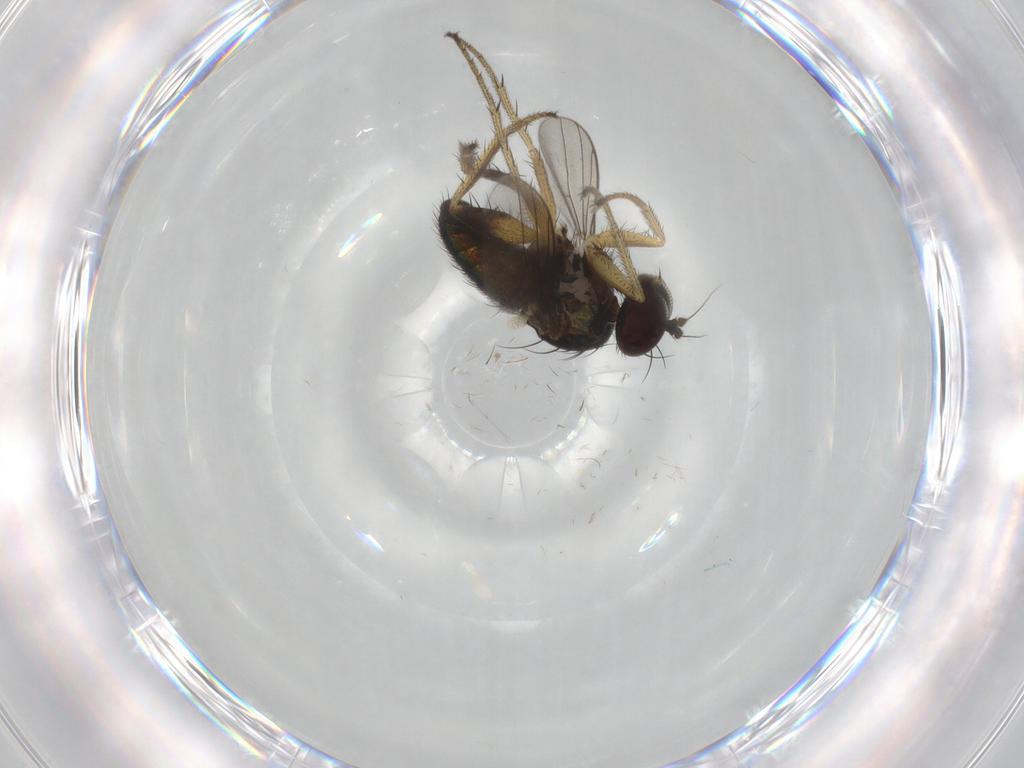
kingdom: Animalia
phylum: Arthropoda
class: Insecta
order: Diptera
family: Dolichopodidae
